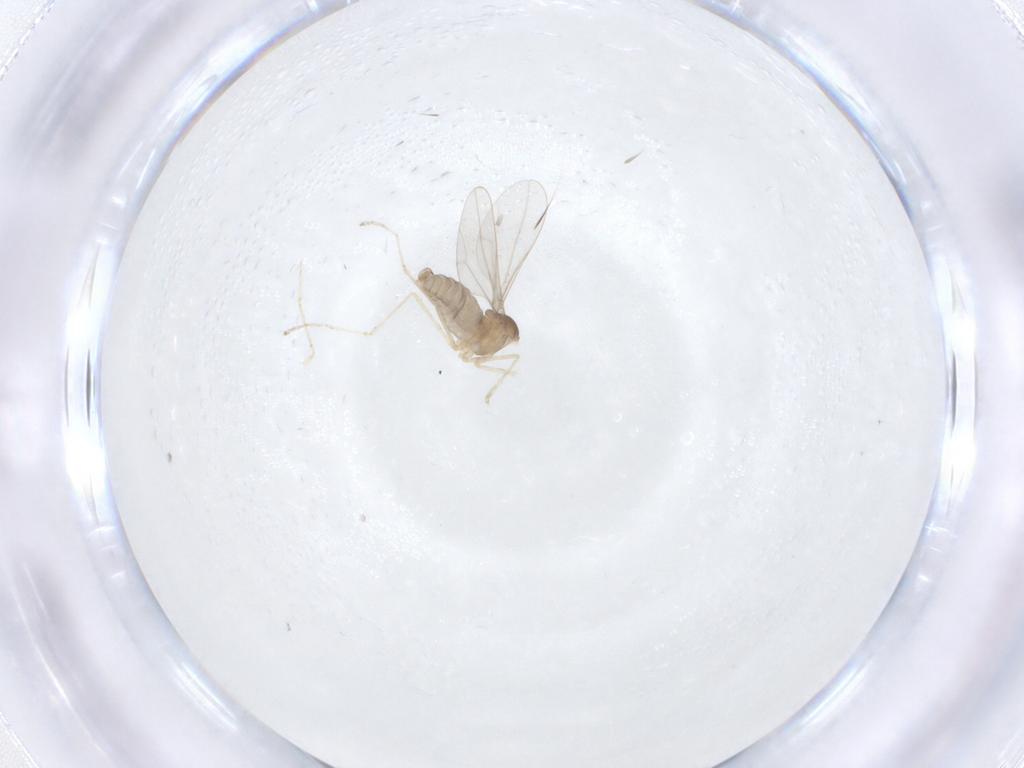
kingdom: Animalia
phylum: Arthropoda
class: Insecta
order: Diptera
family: Cecidomyiidae
